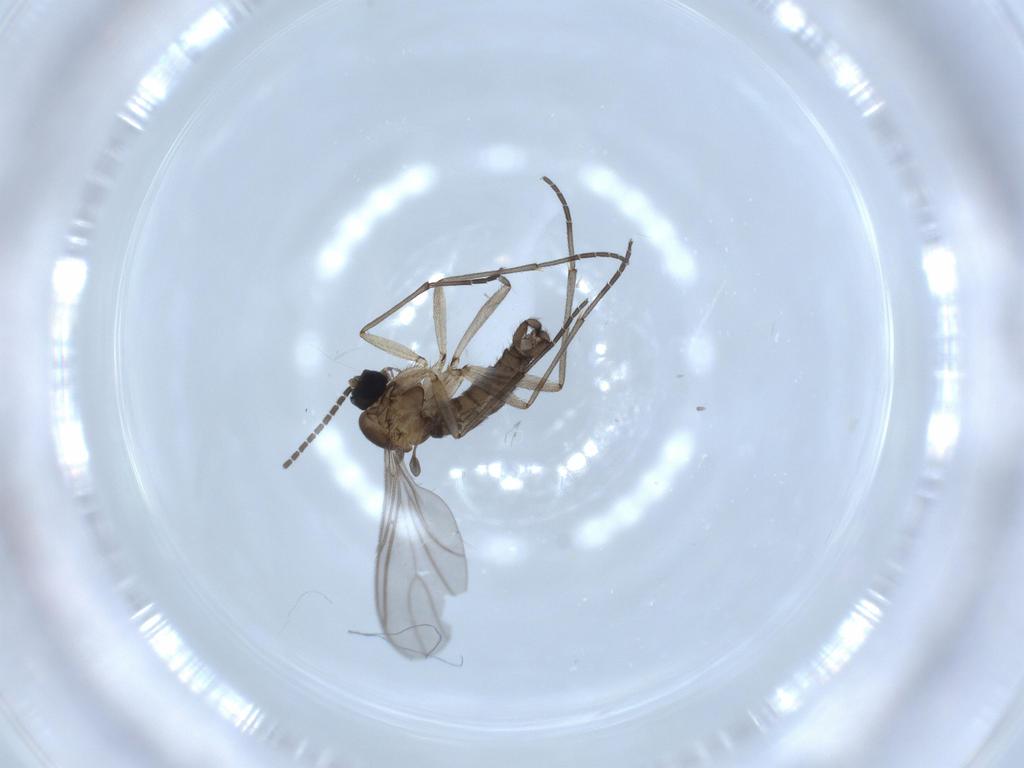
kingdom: Animalia
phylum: Arthropoda
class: Insecta
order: Diptera
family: Sciaridae
